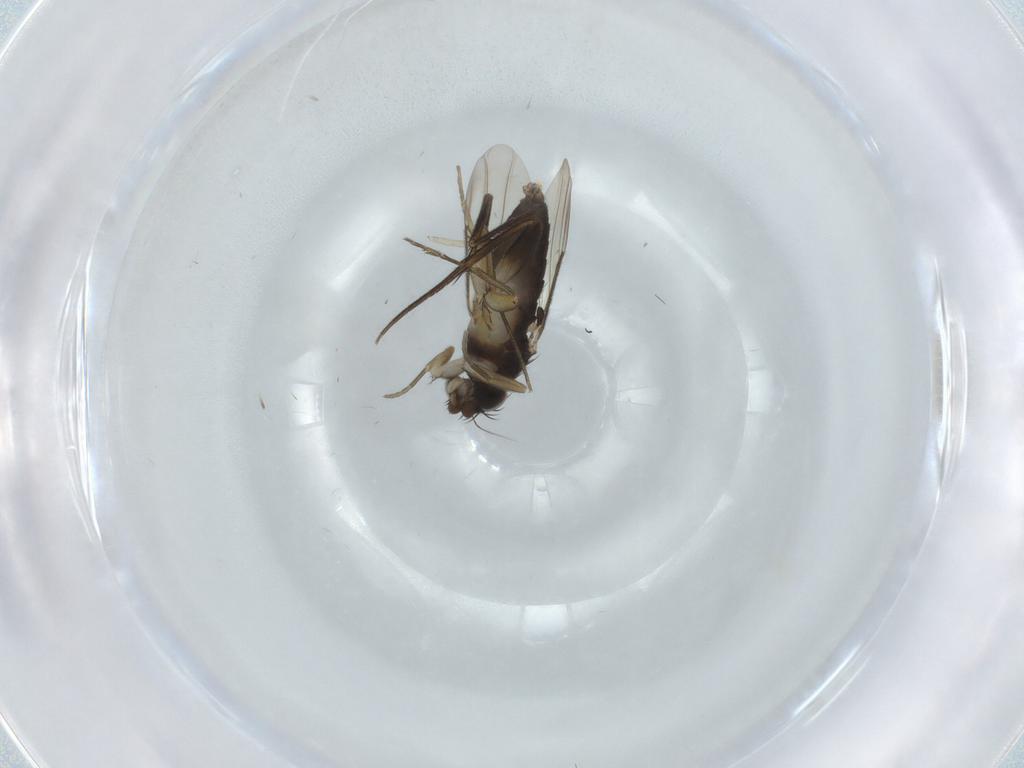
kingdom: Animalia
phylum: Arthropoda
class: Insecta
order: Diptera
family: Phoridae
